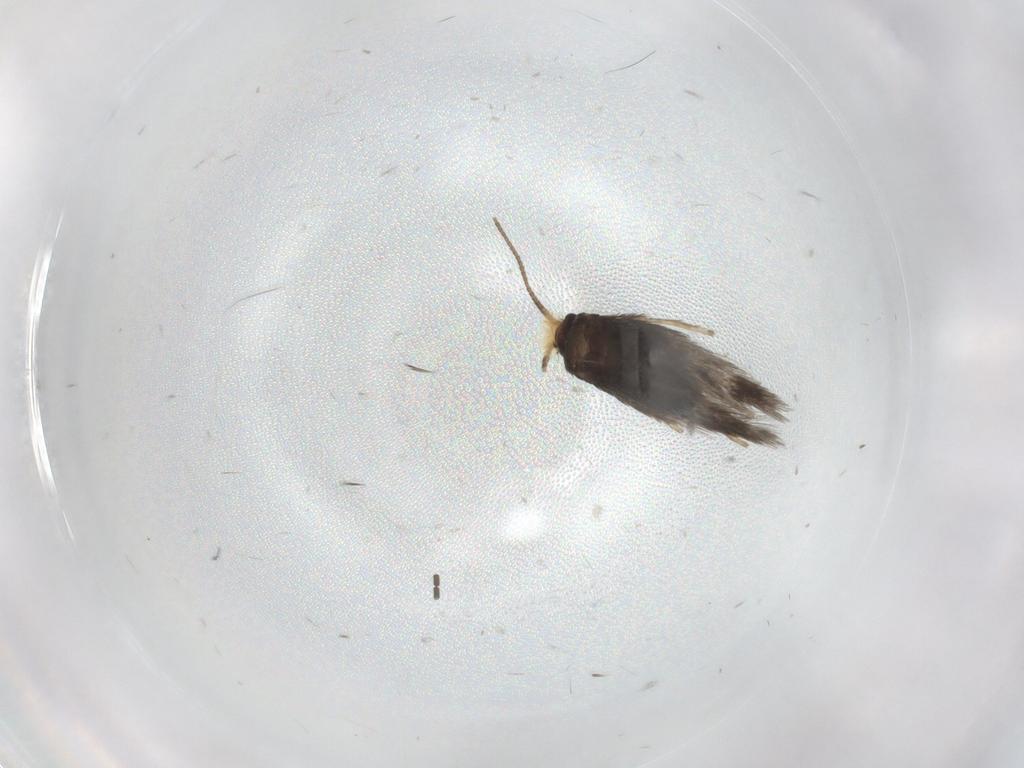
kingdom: Animalia
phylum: Arthropoda
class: Insecta
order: Lepidoptera
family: Nepticulidae
